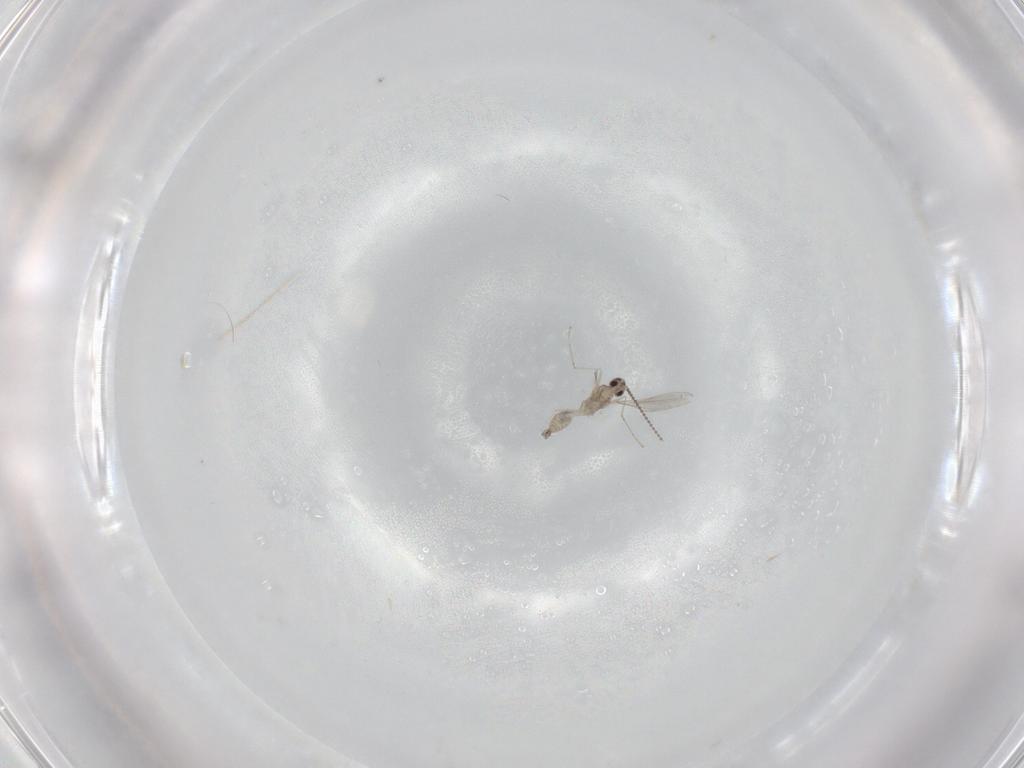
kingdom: Animalia
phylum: Arthropoda
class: Insecta
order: Diptera
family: Cecidomyiidae
